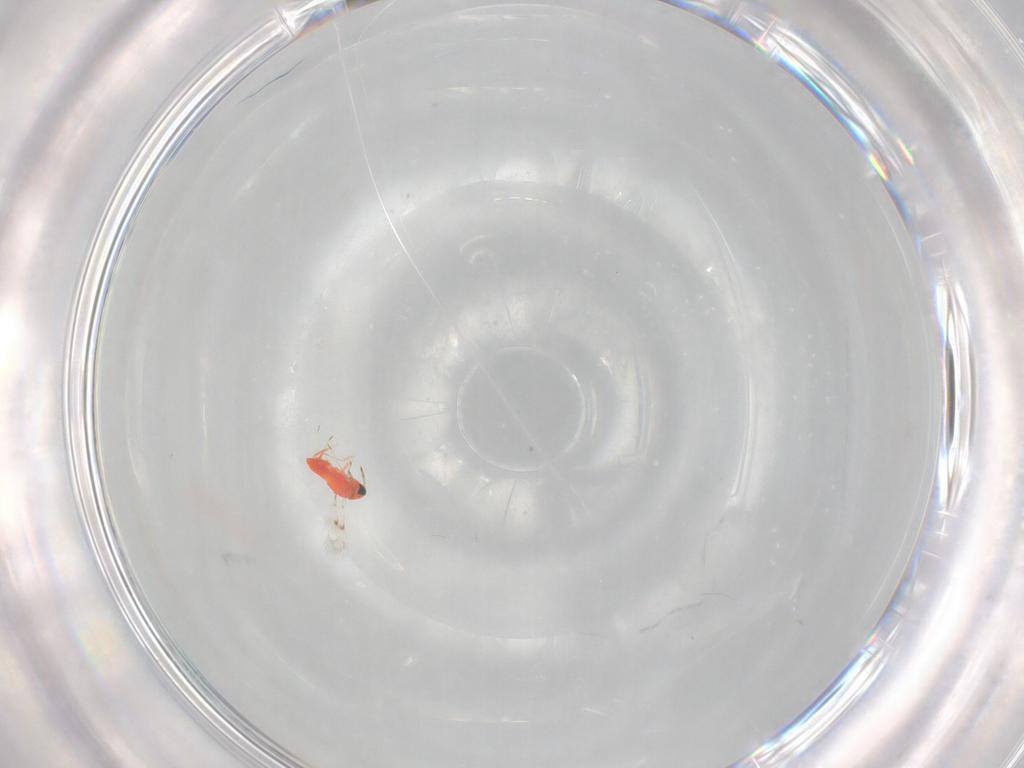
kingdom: Animalia
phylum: Arthropoda
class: Insecta
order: Hymenoptera
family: Trichogrammatidae
